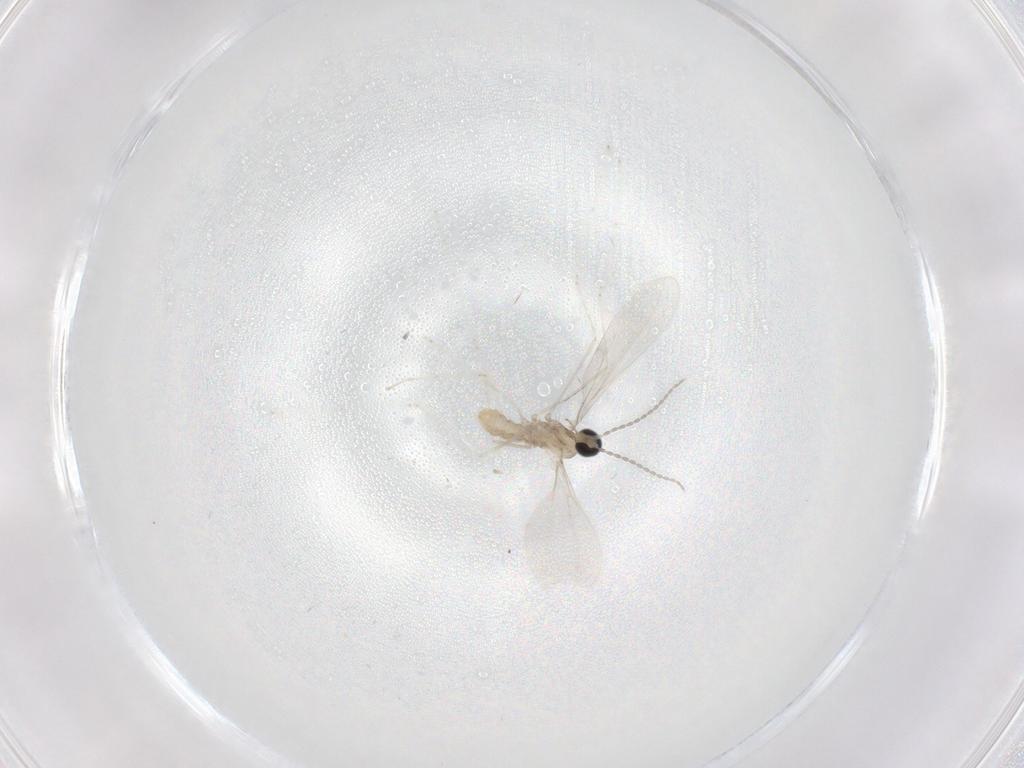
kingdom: Animalia
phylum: Arthropoda
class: Insecta
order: Diptera
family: Cecidomyiidae
